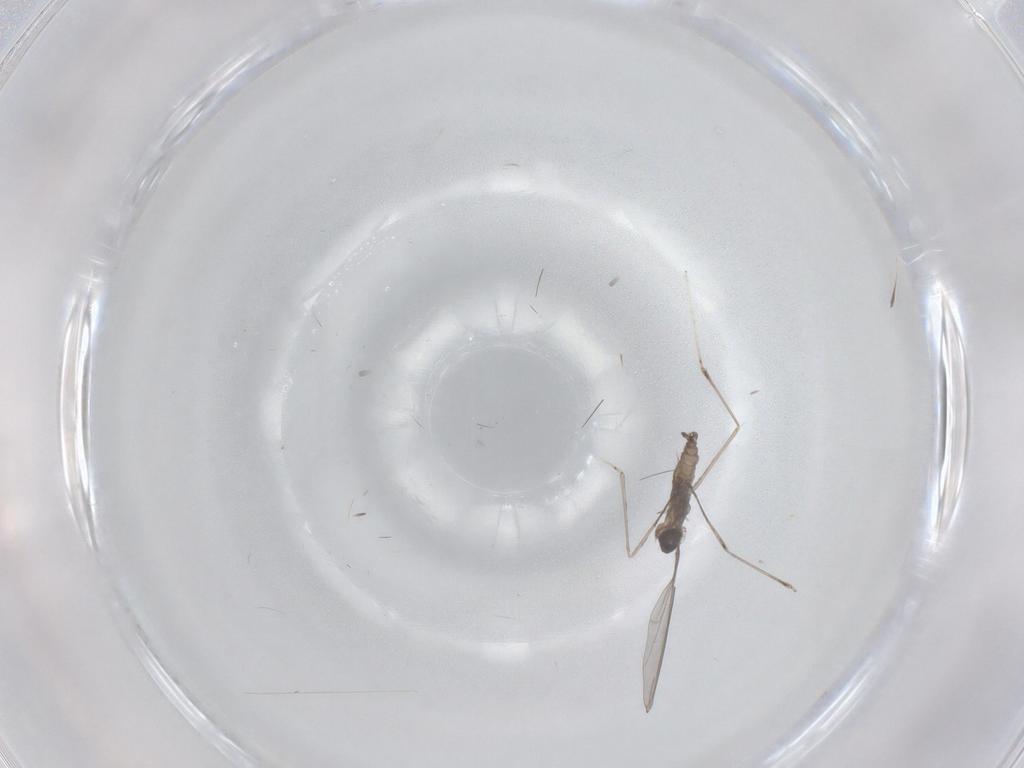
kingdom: Animalia
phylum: Arthropoda
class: Insecta
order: Diptera
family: Cecidomyiidae
